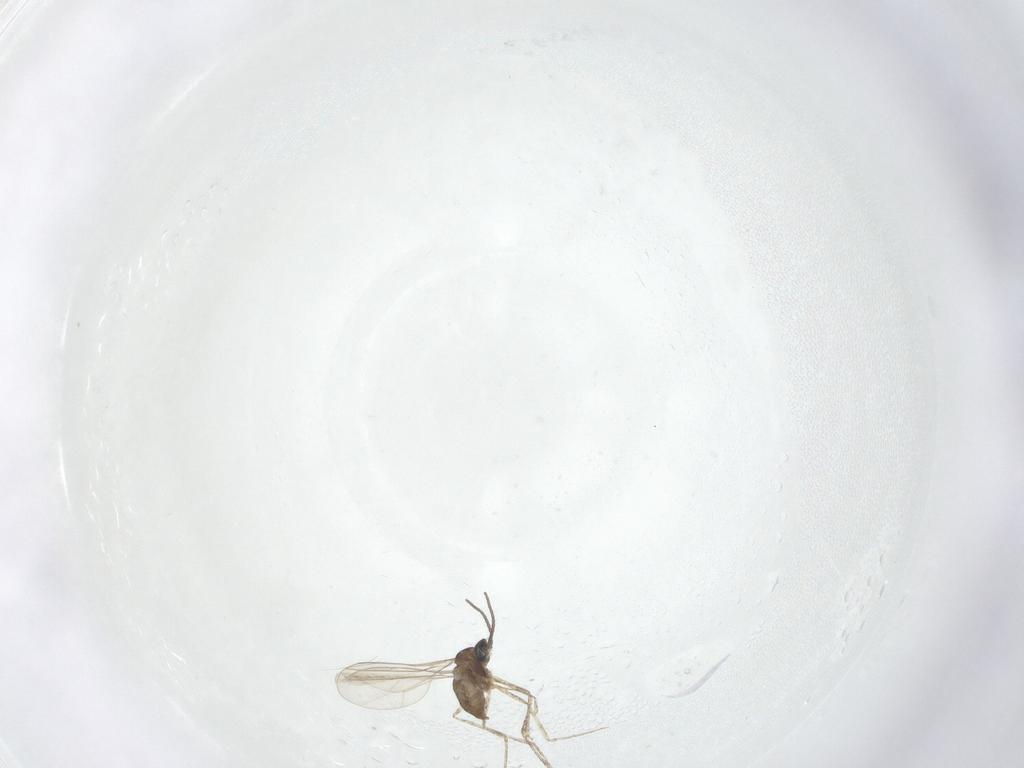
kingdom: Animalia
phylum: Arthropoda
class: Insecta
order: Diptera
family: Cecidomyiidae
